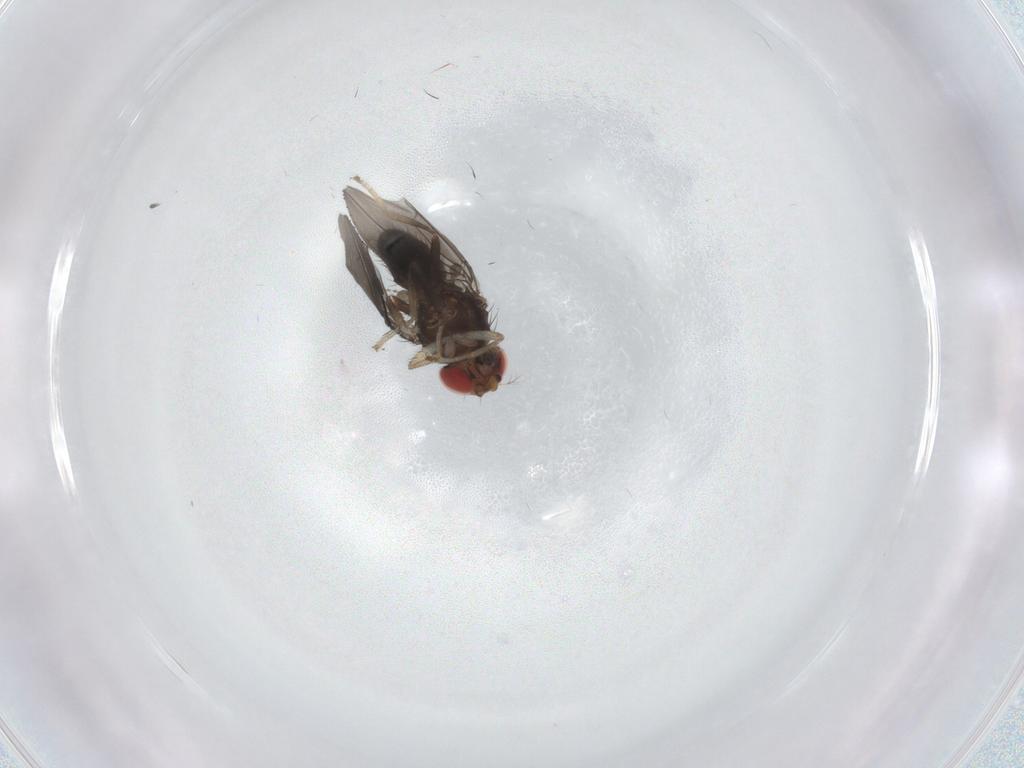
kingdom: Animalia
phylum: Arthropoda
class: Insecta
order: Diptera
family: Drosophilidae
